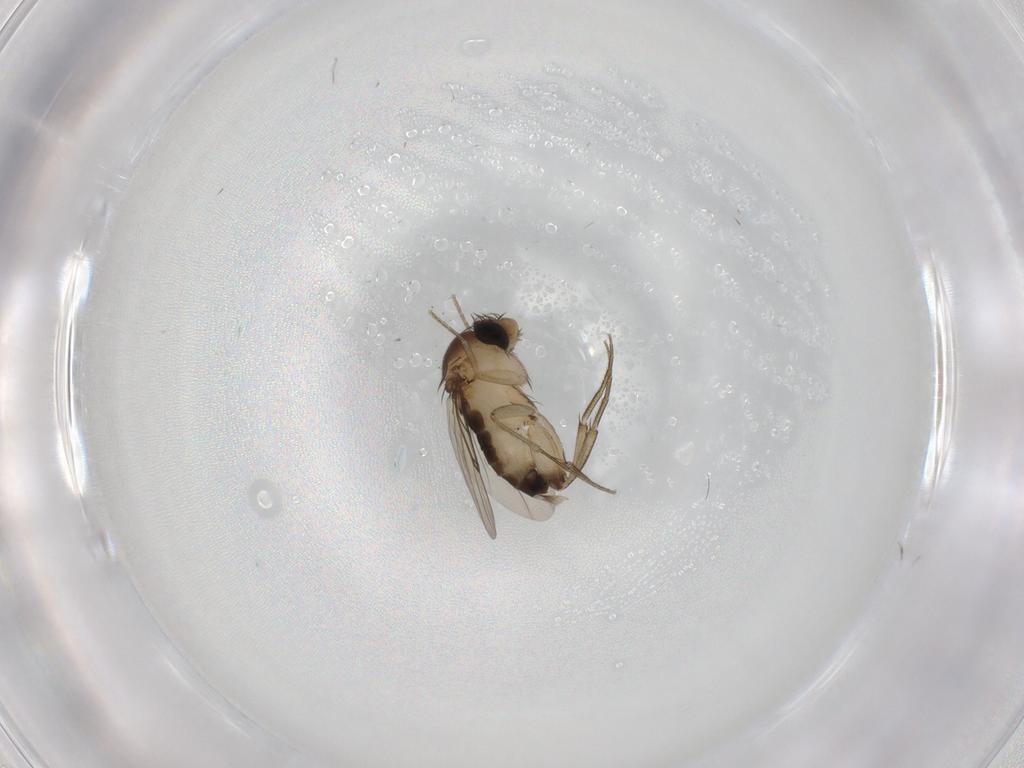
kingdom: Animalia
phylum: Arthropoda
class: Insecta
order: Diptera
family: Phoridae
